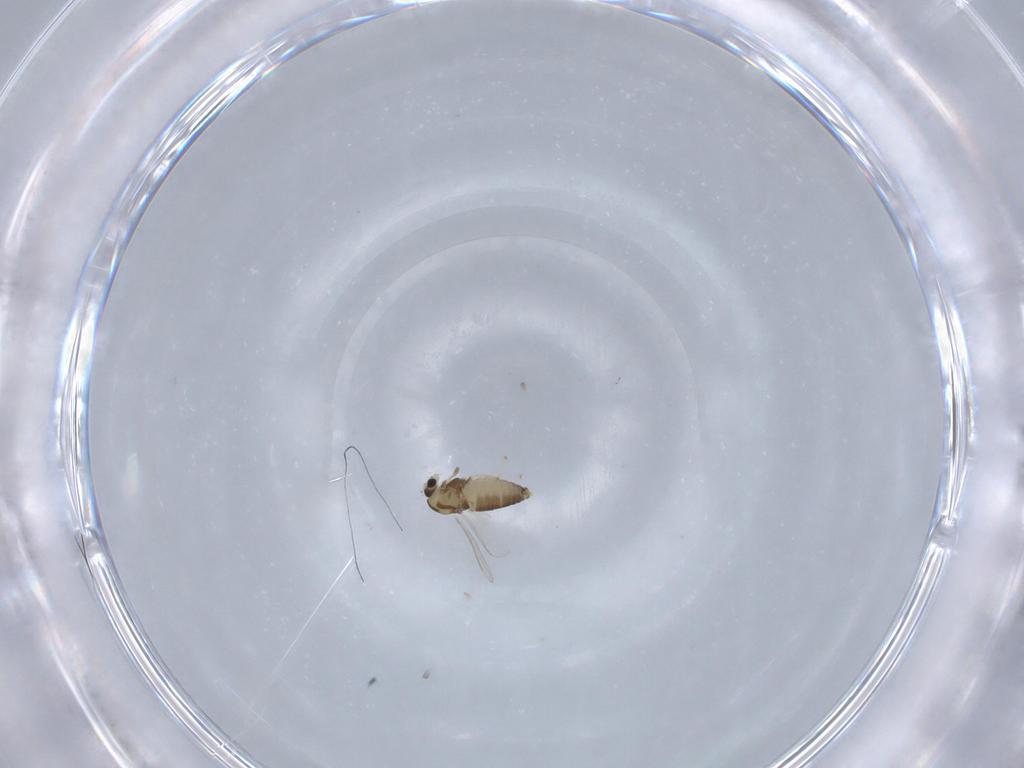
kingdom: Animalia
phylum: Arthropoda
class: Insecta
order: Diptera
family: Chironomidae
